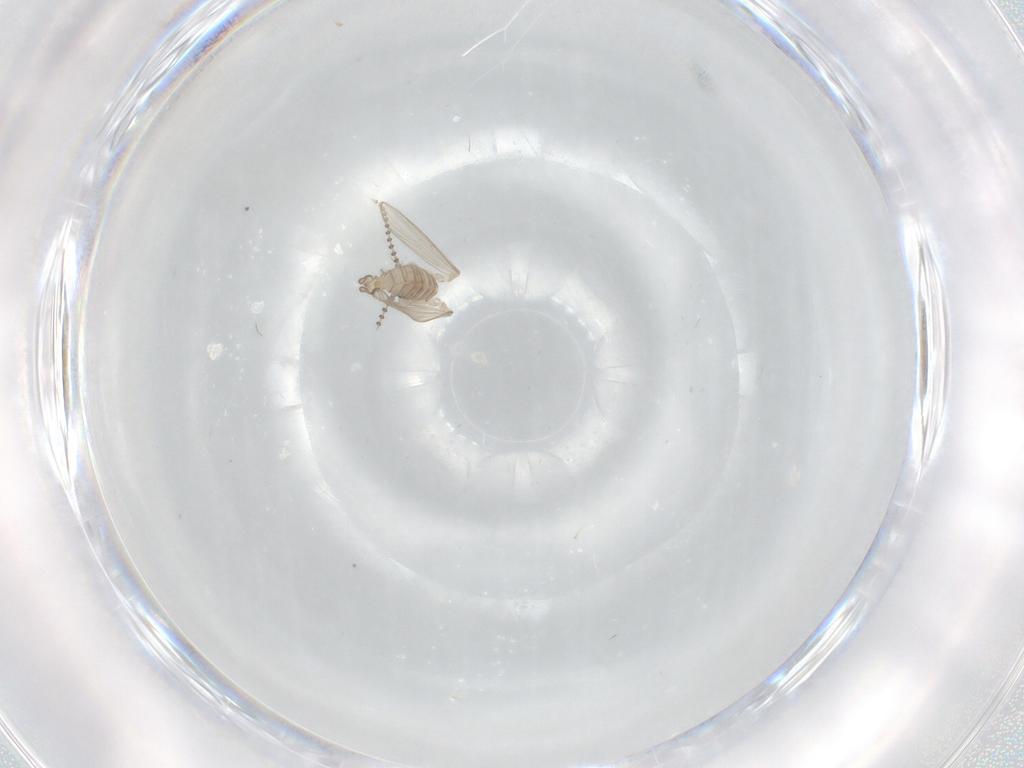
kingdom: Animalia
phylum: Arthropoda
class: Insecta
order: Diptera
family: Psychodidae
